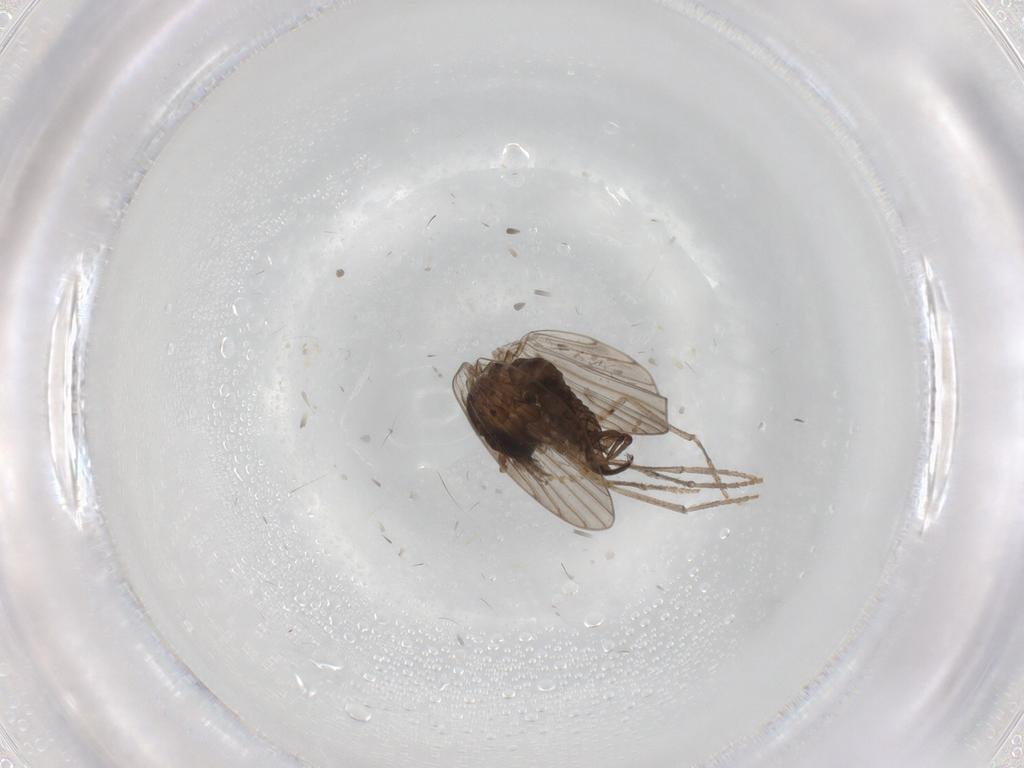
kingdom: Animalia
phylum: Arthropoda
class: Insecta
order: Diptera
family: Psychodidae
